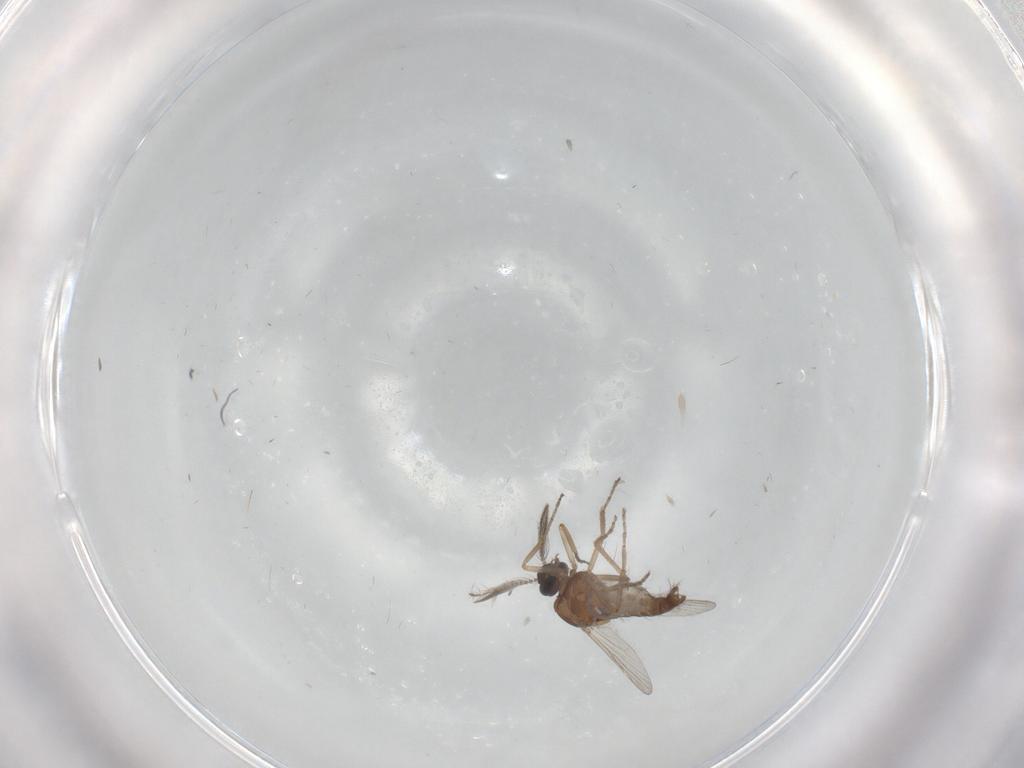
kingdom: Animalia
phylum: Arthropoda
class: Insecta
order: Diptera
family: Ceratopogonidae
